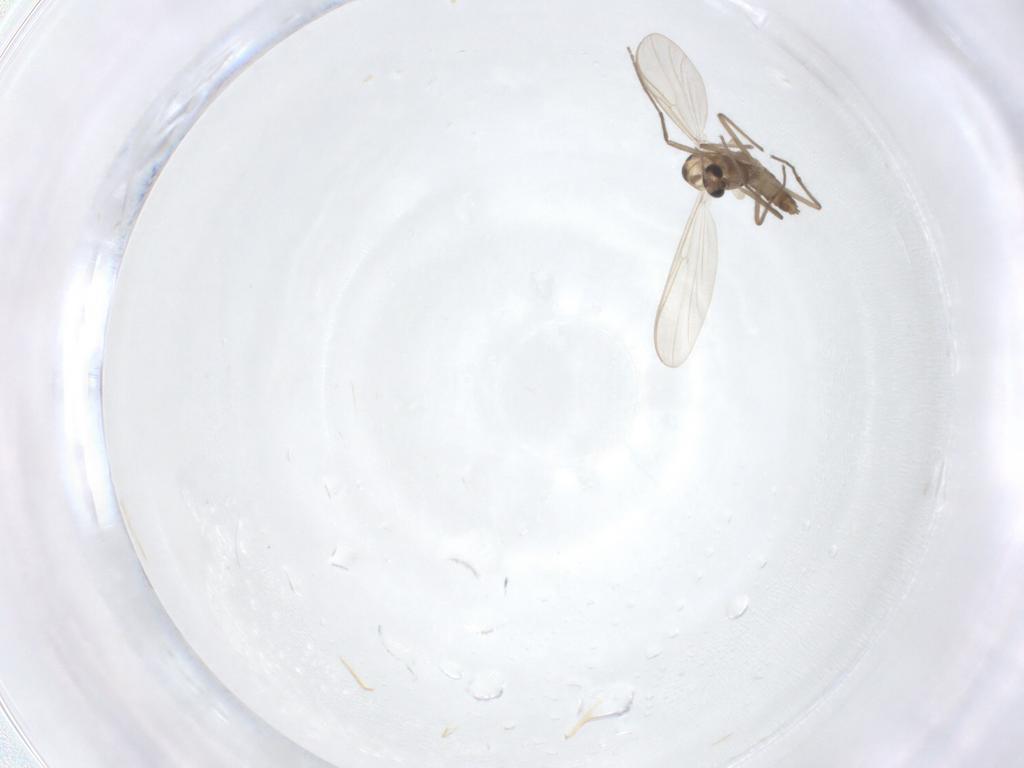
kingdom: Animalia
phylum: Arthropoda
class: Insecta
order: Diptera
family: Chironomidae
